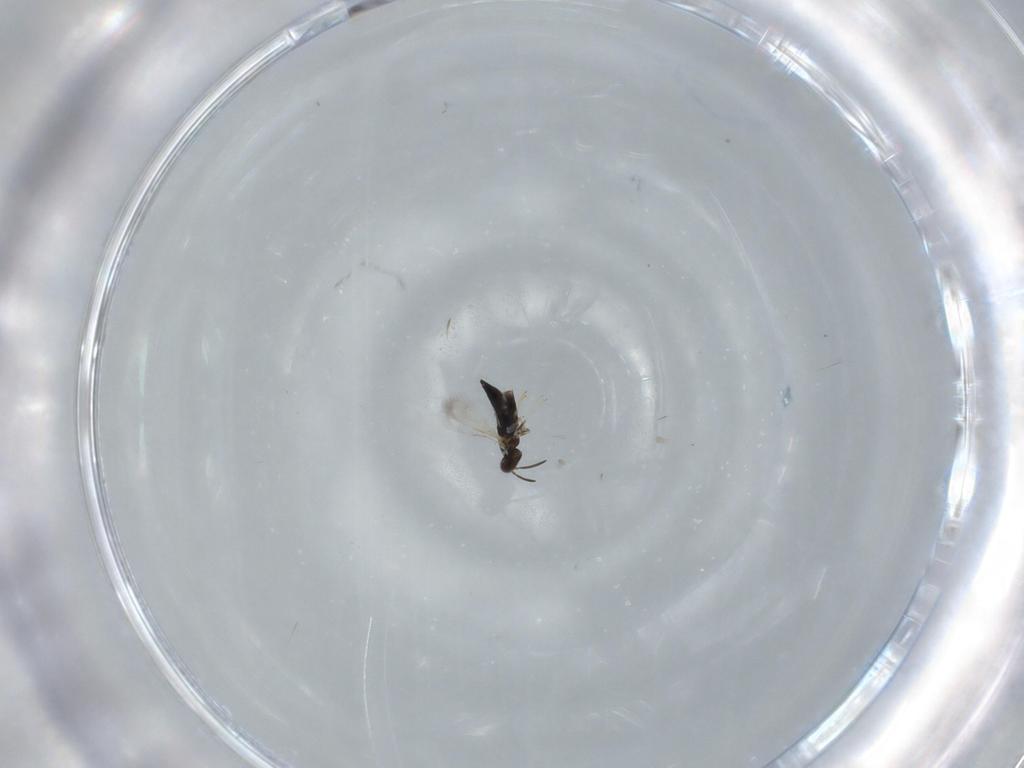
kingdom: Animalia
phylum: Arthropoda
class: Insecta
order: Hymenoptera
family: Signiphoridae
